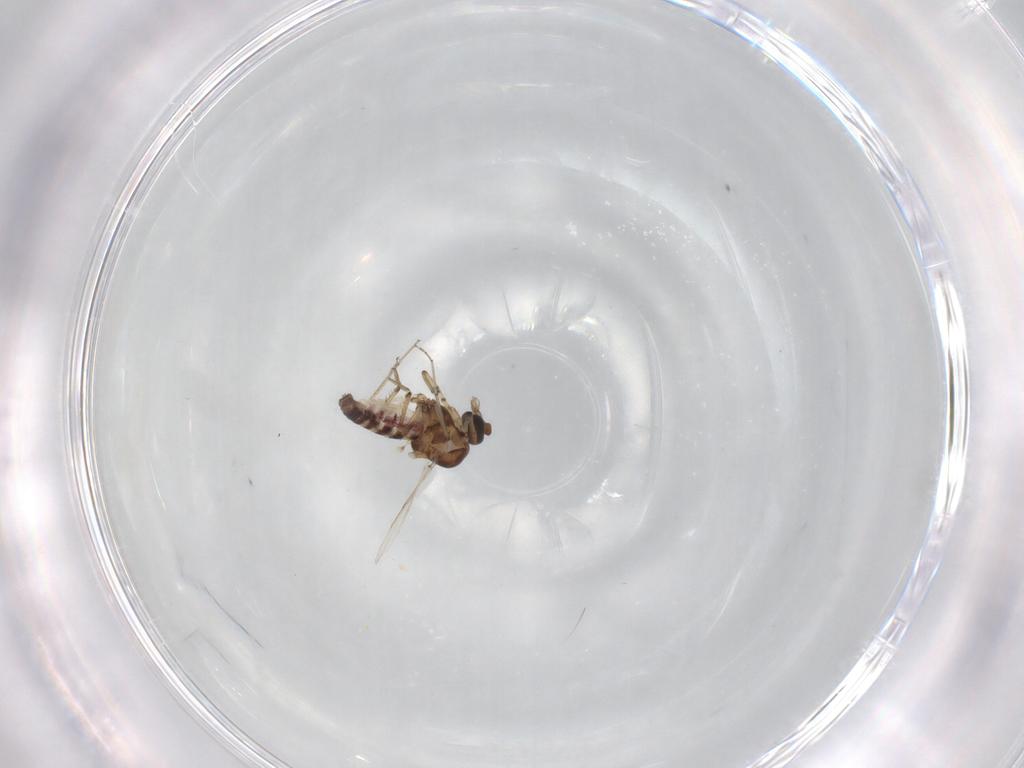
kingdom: Animalia
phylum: Arthropoda
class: Insecta
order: Diptera
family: Ceratopogonidae
